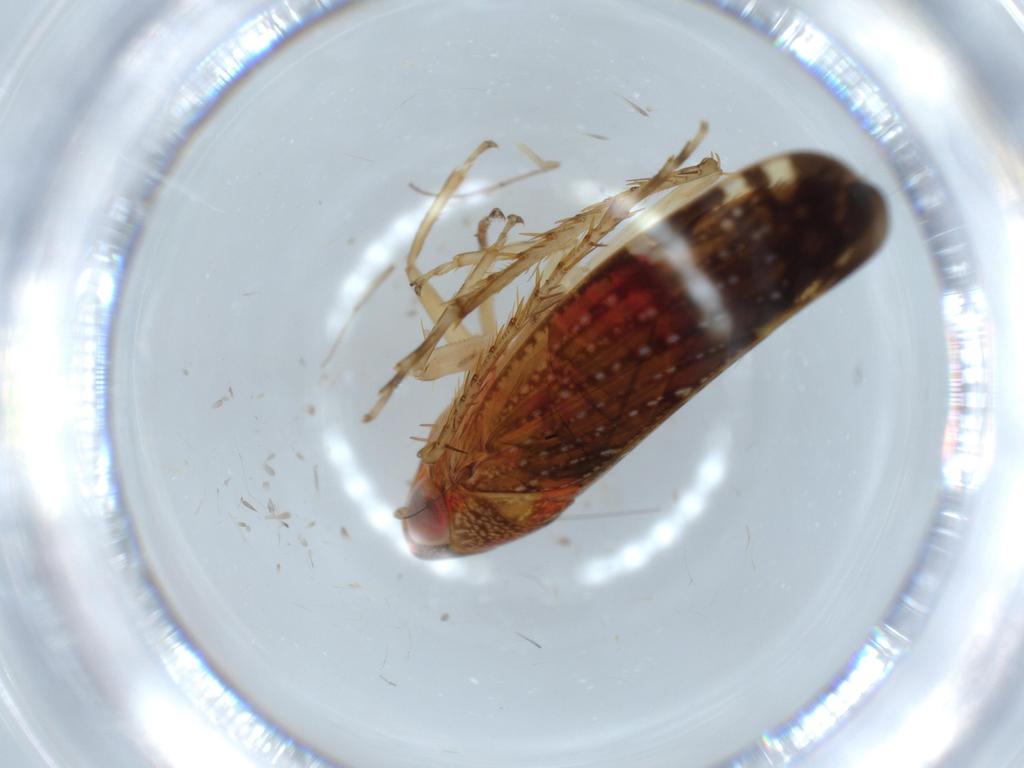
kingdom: Animalia
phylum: Arthropoda
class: Insecta
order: Hemiptera
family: Cicadellidae
